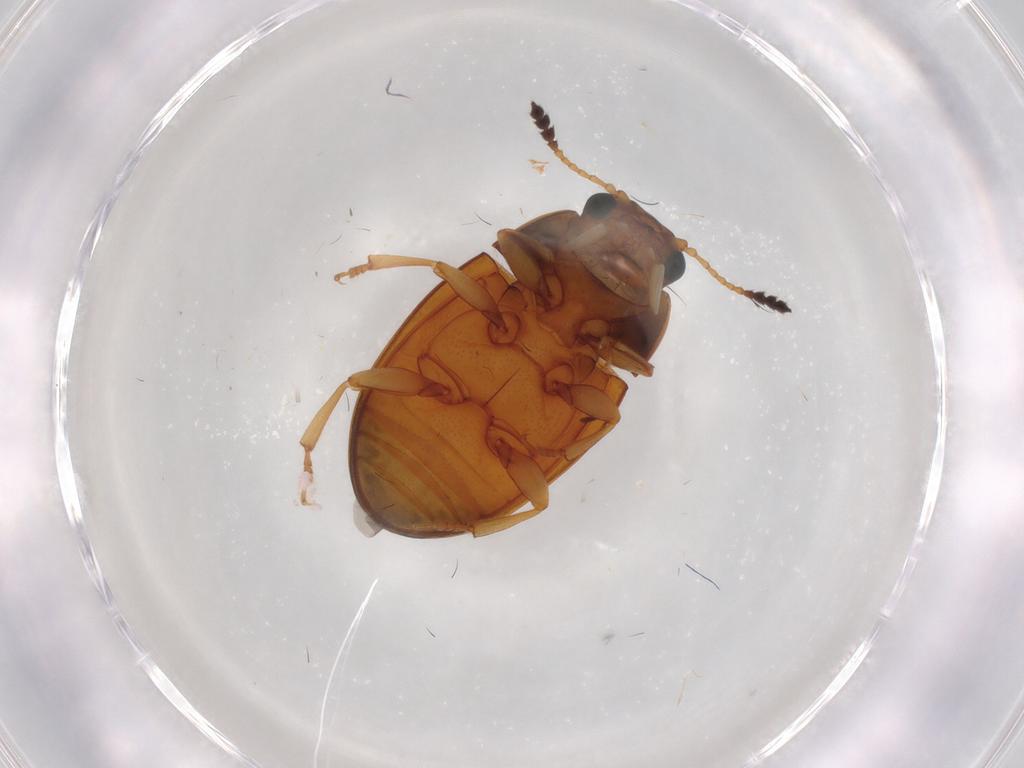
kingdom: Animalia
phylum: Arthropoda
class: Insecta
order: Coleoptera
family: Erotylidae
